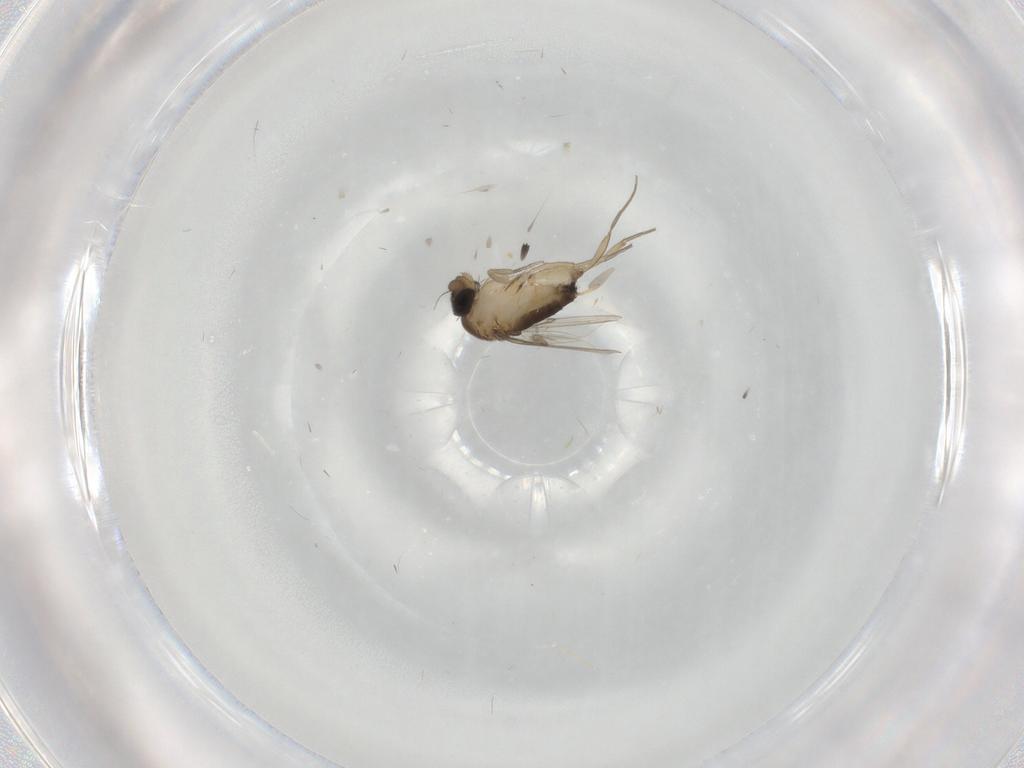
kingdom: Animalia
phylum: Arthropoda
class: Insecta
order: Diptera
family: Phoridae
